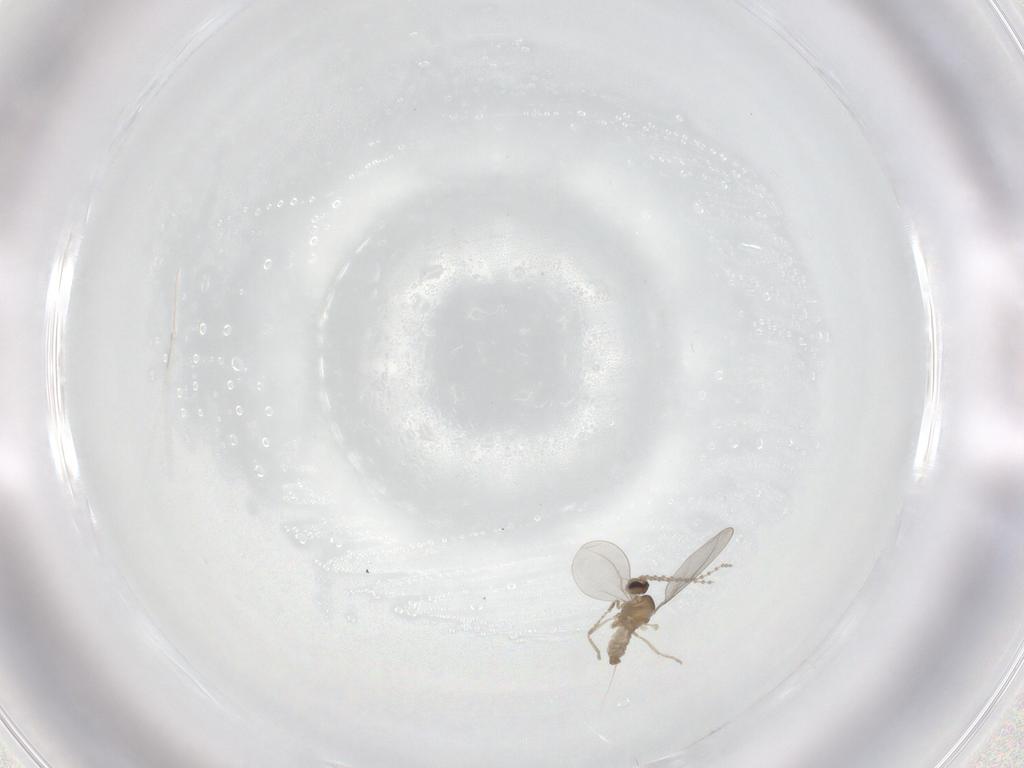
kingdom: Animalia
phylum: Arthropoda
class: Insecta
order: Diptera
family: Cecidomyiidae
